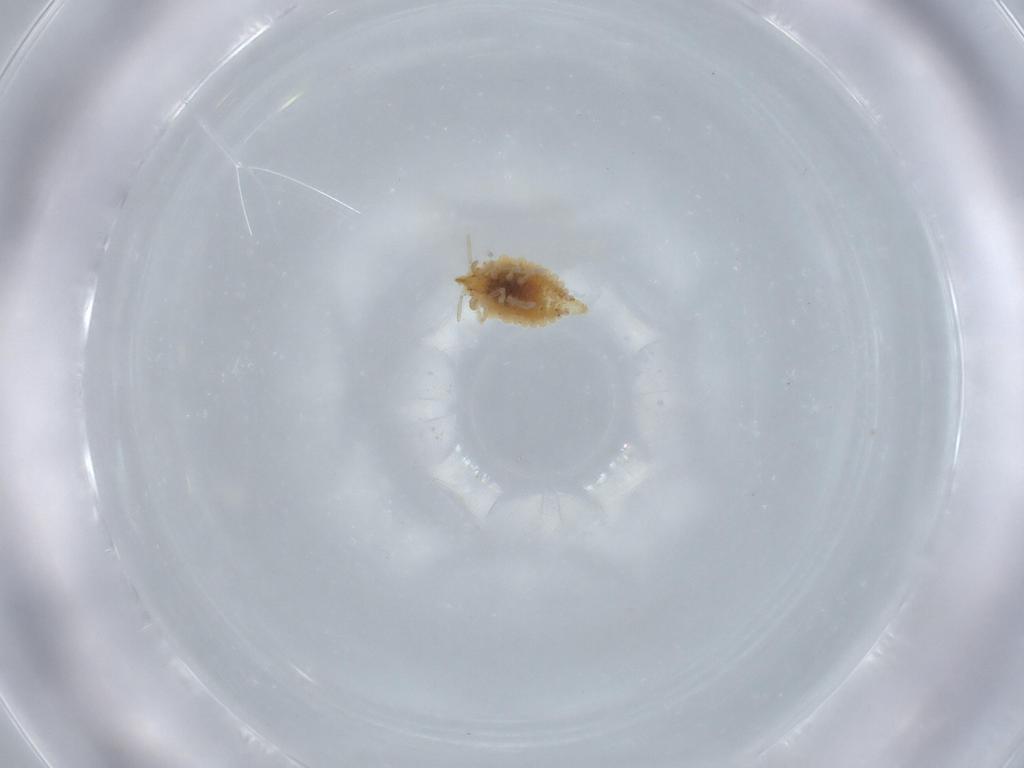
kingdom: Animalia
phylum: Arthropoda
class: Insecta
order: Neuroptera
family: Coniopterygidae
